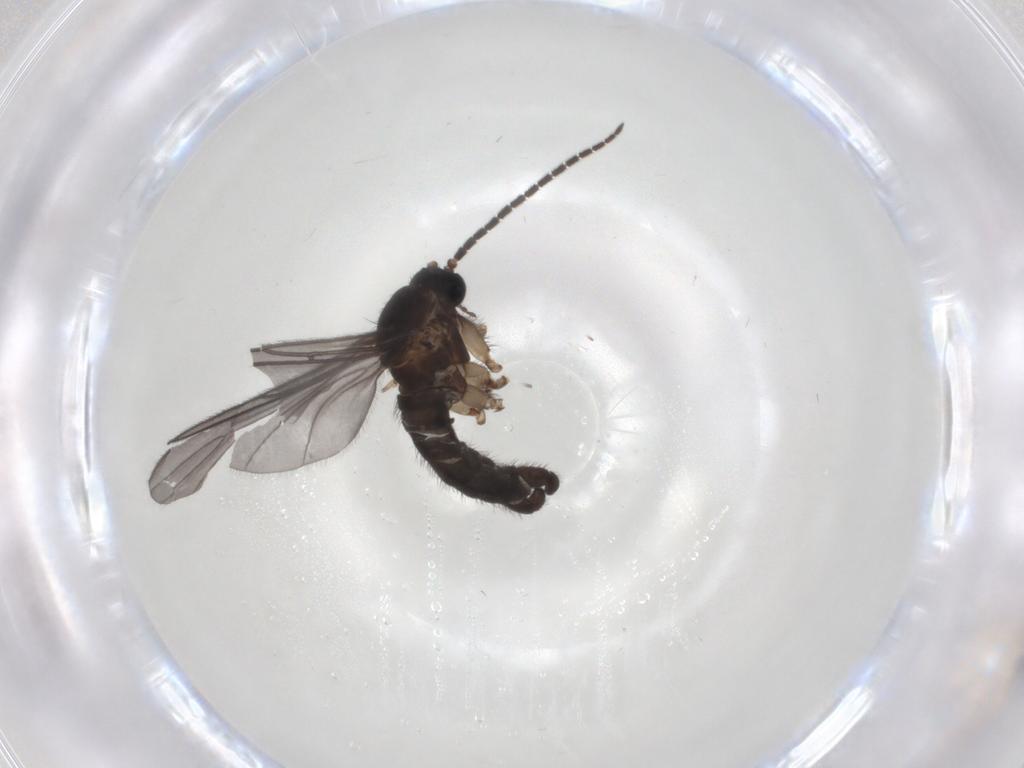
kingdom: Animalia
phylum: Arthropoda
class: Insecta
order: Diptera
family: Sciaridae
